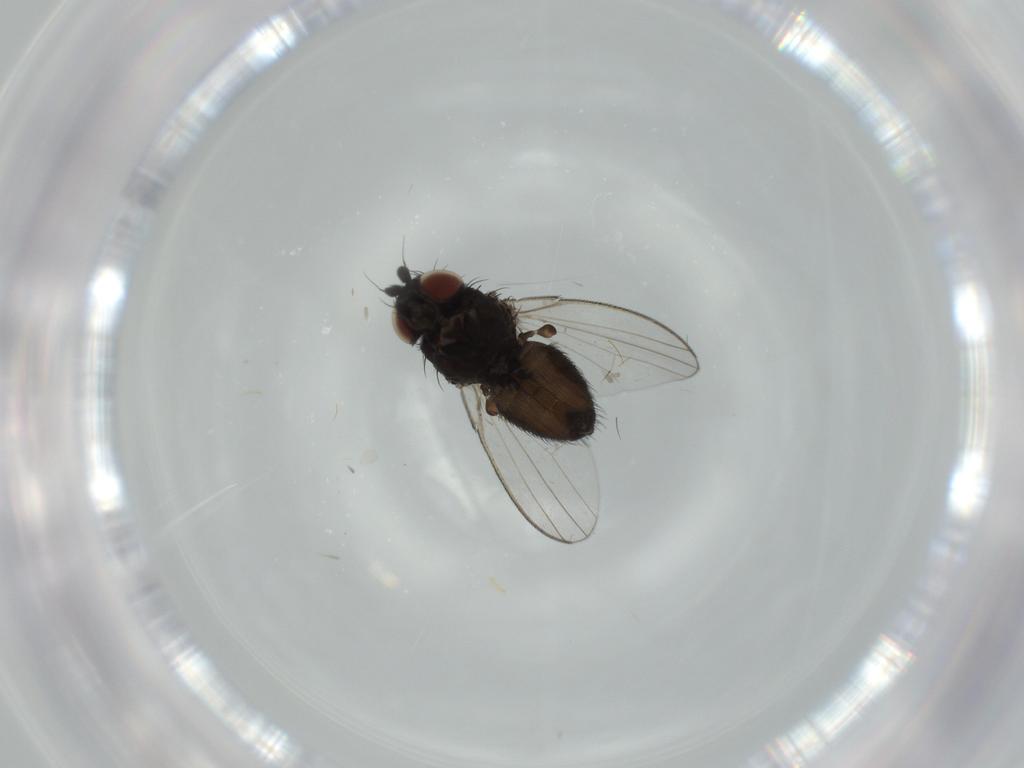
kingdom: Animalia
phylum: Arthropoda
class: Insecta
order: Diptera
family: Milichiidae
